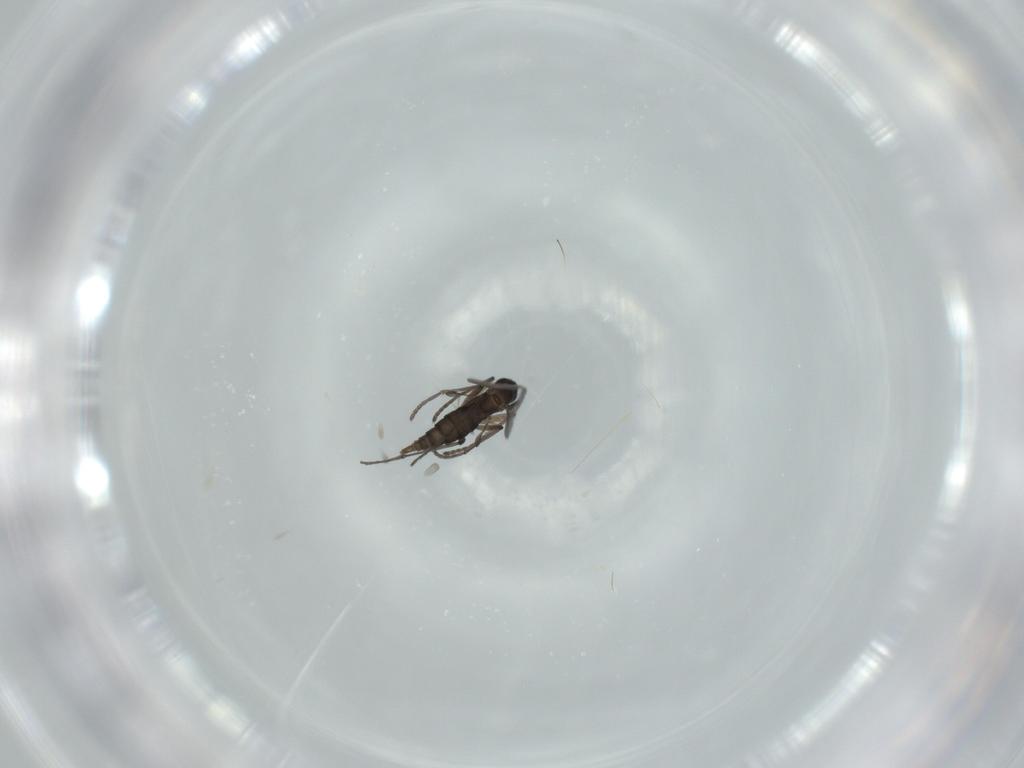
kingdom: Animalia
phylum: Arthropoda
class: Insecta
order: Diptera
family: Sciaridae
